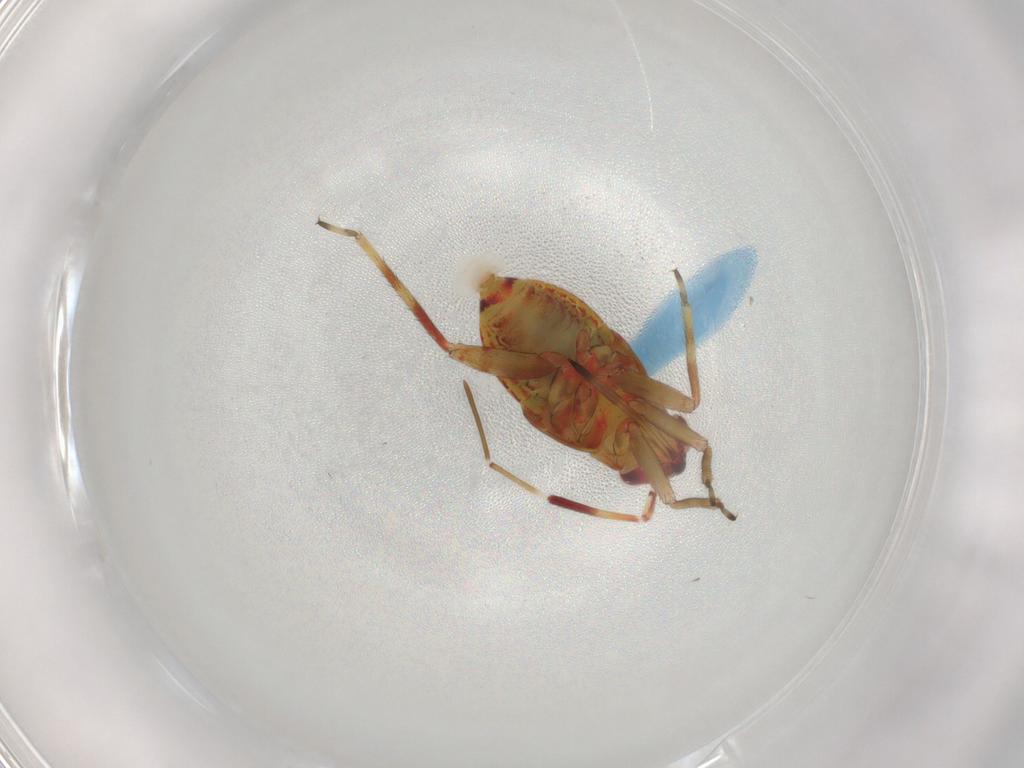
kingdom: Animalia
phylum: Arthropoda
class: Insecta
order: Hemiptera
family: Miridae
